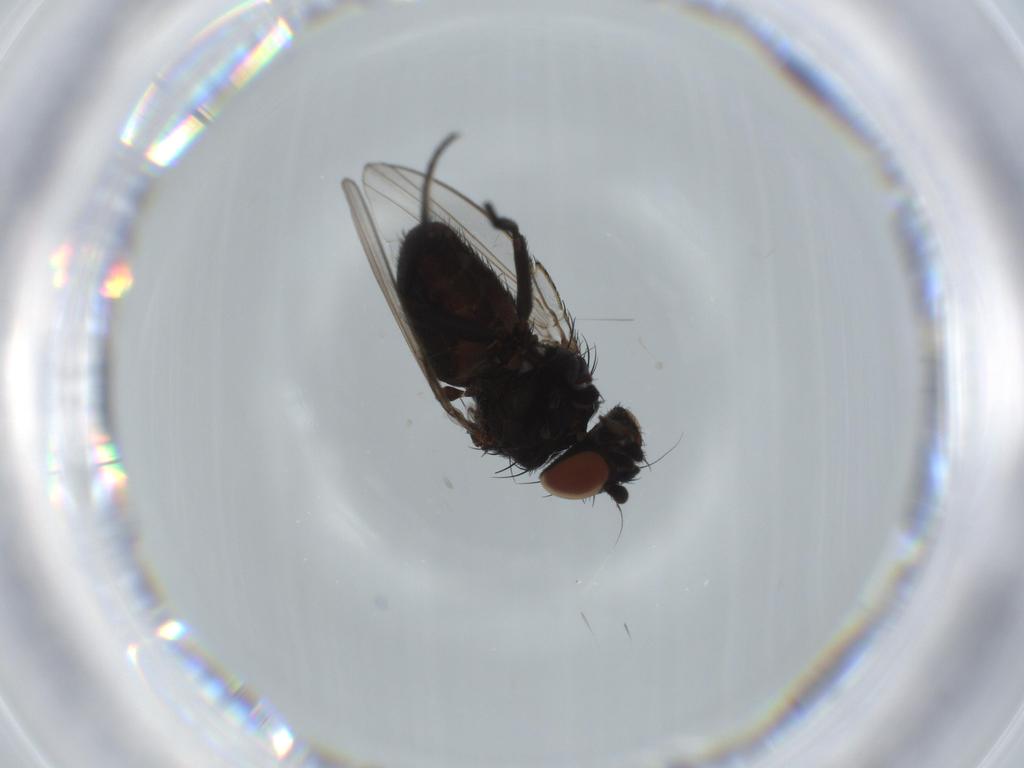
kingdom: Animalia
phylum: Arthropoda
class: Insecta
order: Diptera
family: Milichiidae
